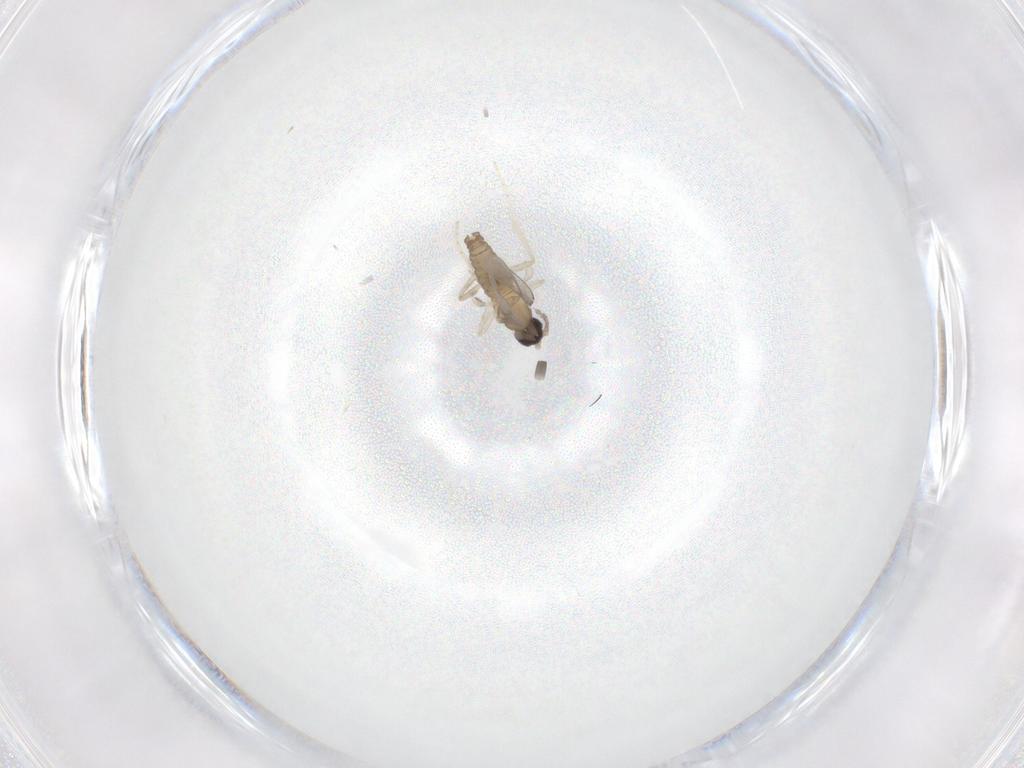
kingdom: Animalia
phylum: Arthropoda
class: Insecta
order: Diptera
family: Cecidomyiidae
